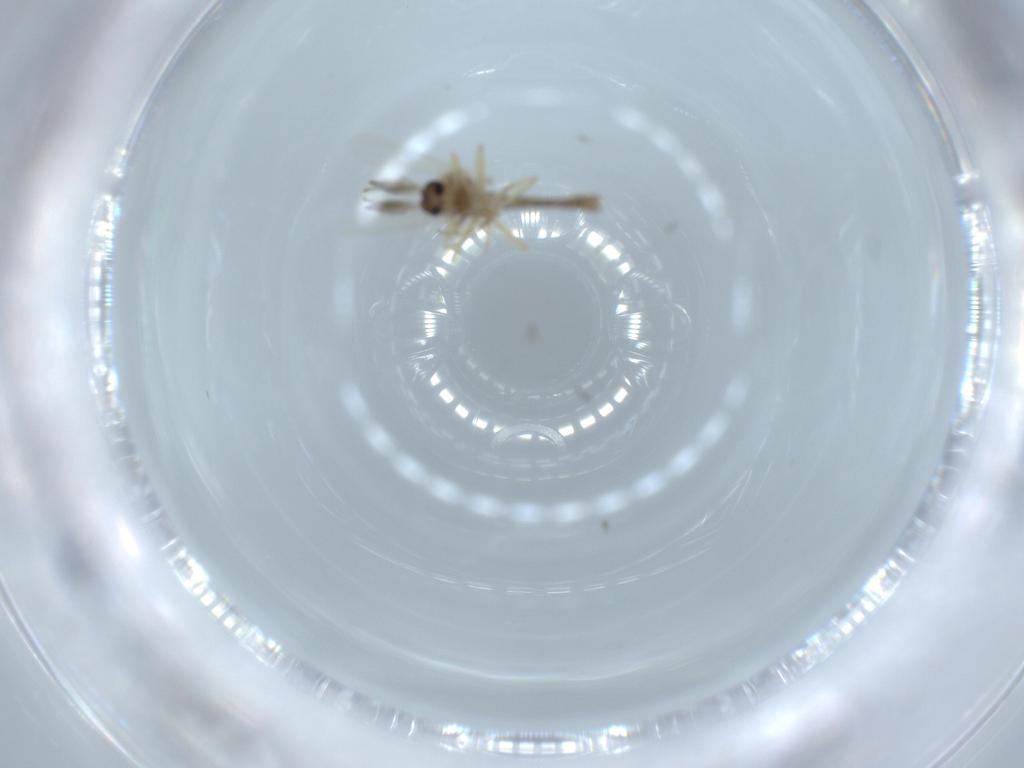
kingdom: Animalia
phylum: Arthropoda
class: Insecta
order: Diptera
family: Ceratopogonidae
